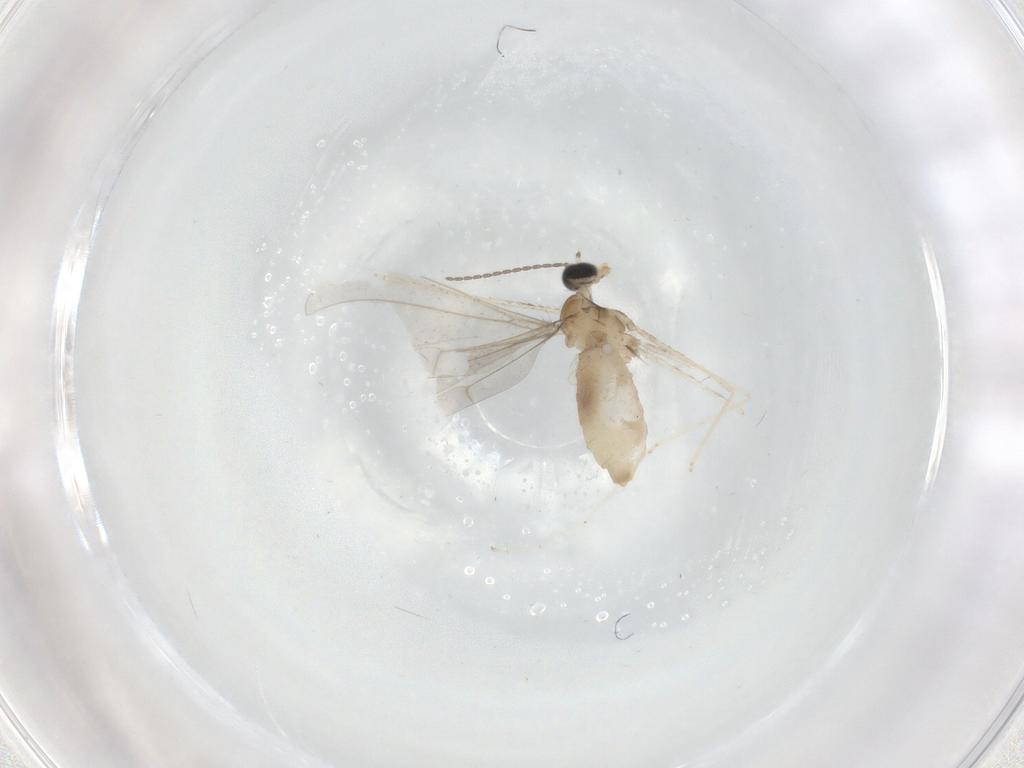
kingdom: Animalia
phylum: Arthropoda
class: Insecta
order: Diptera
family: Cecidomyiidae
